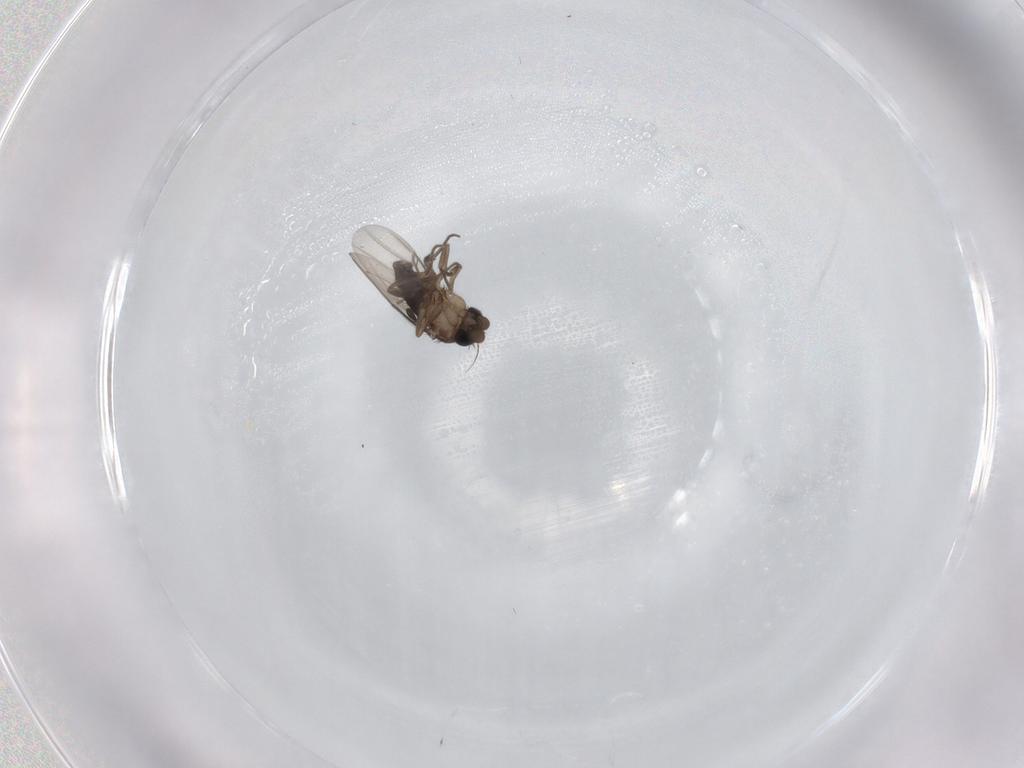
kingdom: Animalia
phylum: Arthropoda
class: Insecta
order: Diptera
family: Phoridae
